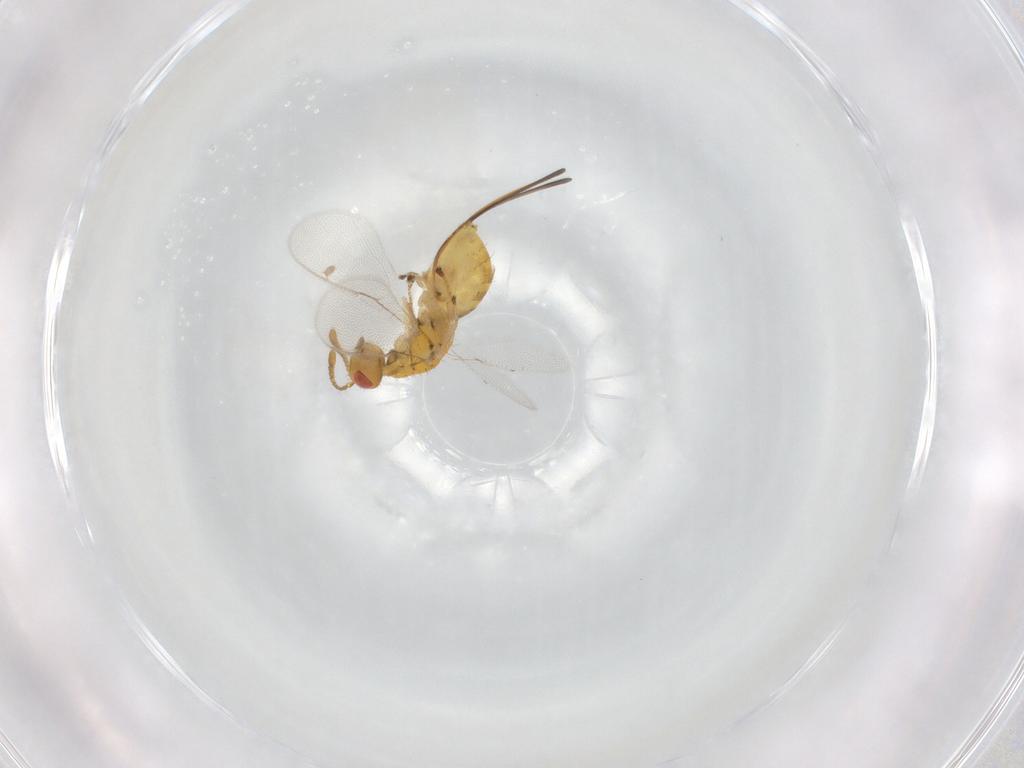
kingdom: Animalia
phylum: Arthropoda
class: Insecta
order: Hymenoptera
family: Megastigmidae
